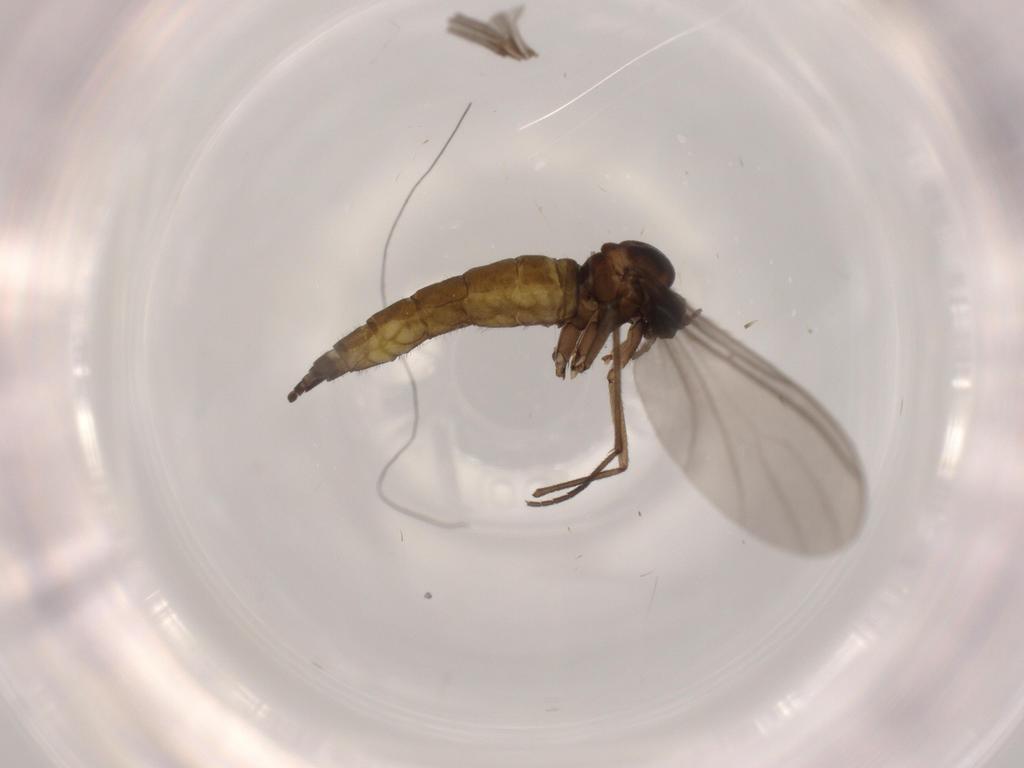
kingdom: Animalia
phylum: Arthropoda
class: Insecta
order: Diptera
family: Sciaridae
